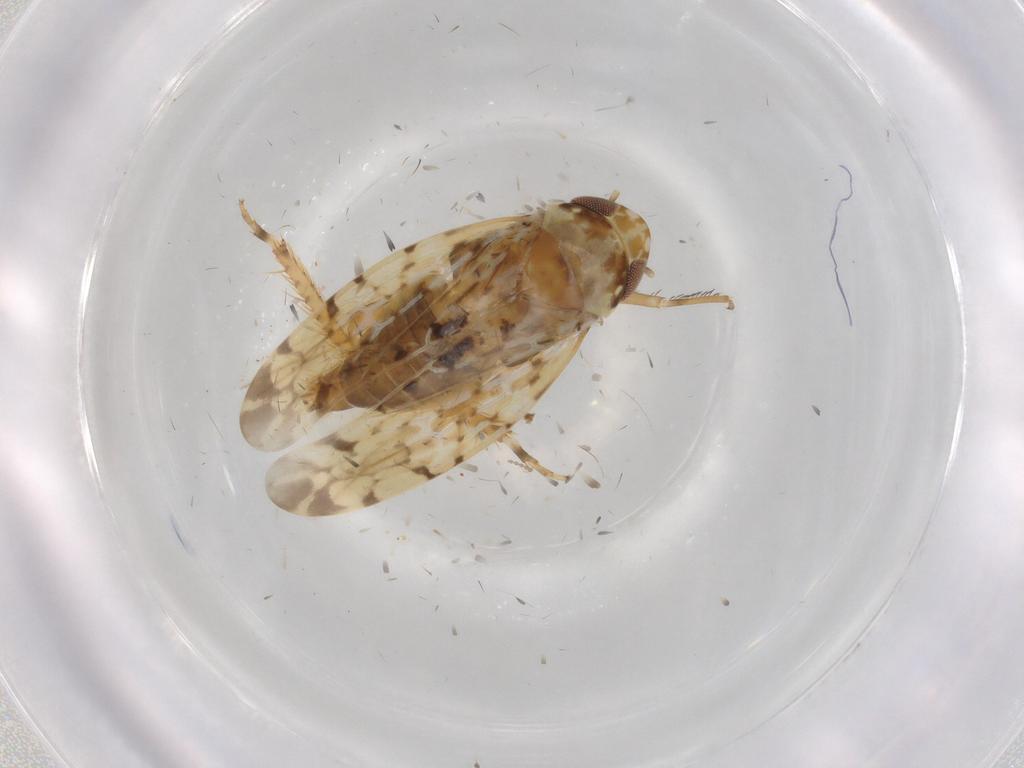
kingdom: Animalia
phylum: Arthropoda
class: Insecta
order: Hemiptera
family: Cicadellidae
